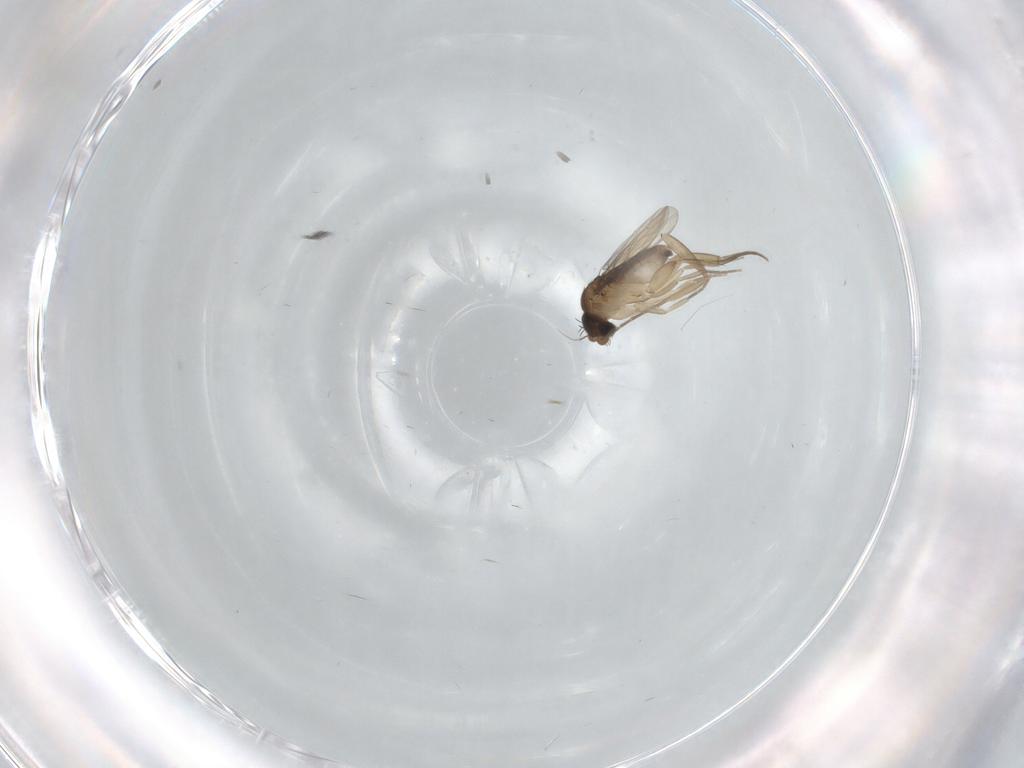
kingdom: Animalia
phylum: Arthropoda
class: Insecta
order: Diptera
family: Phoridae
